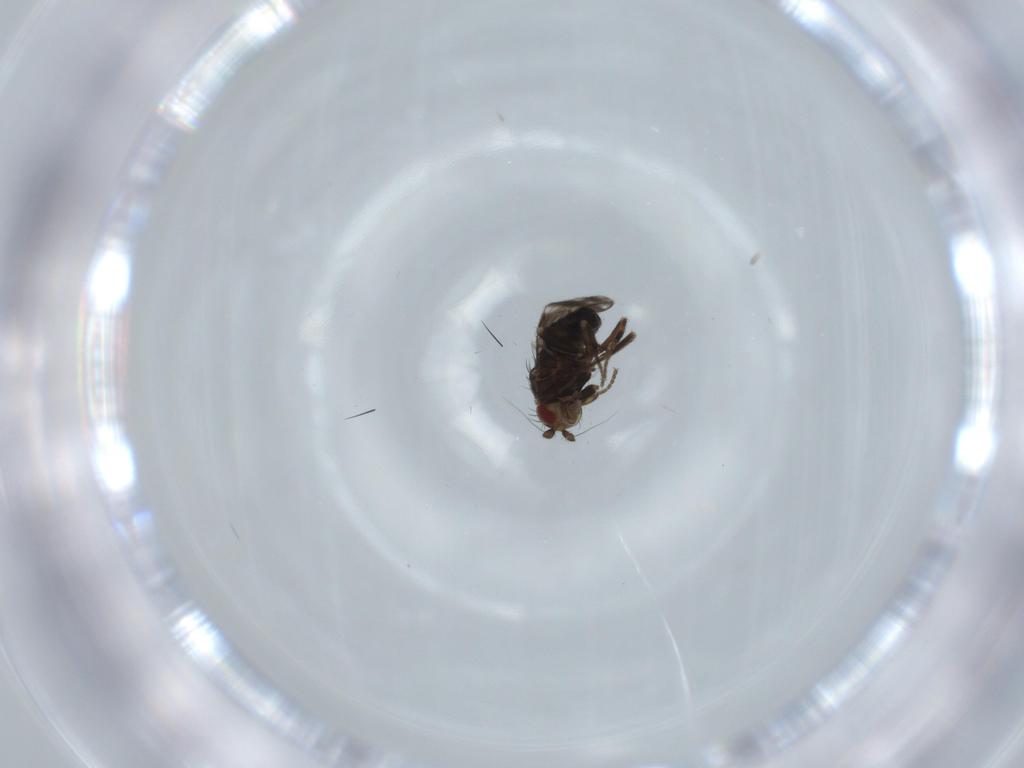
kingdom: Animalia
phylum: Arthropoda
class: Insecta
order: Diptera
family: Sphaeroceridae
